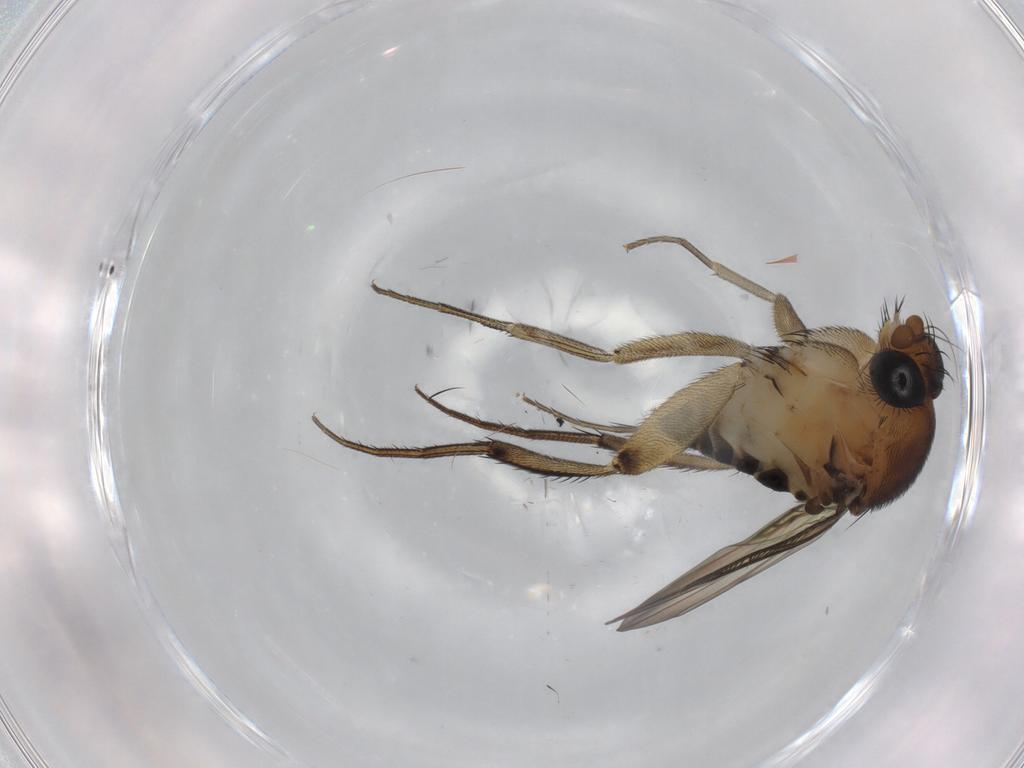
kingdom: Animalia
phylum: Arthropoda
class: Insecta
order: Diptera
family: Sciaridae
